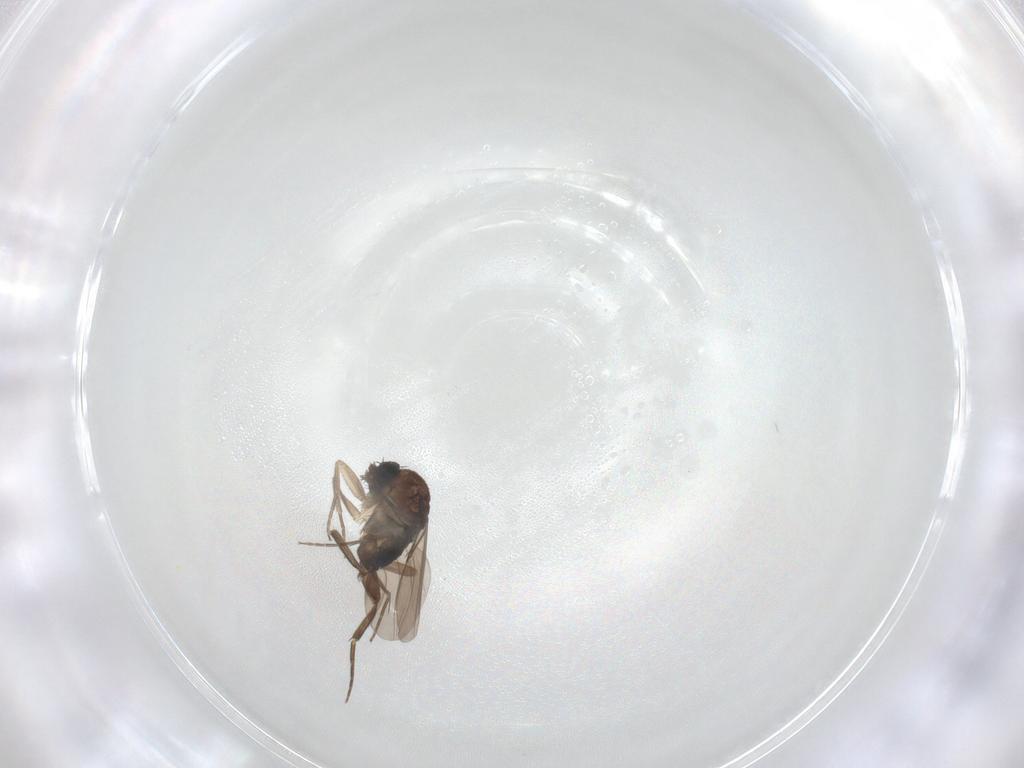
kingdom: Animalia
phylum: Arthropoda
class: Insecta
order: Diptera
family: Phoridae
